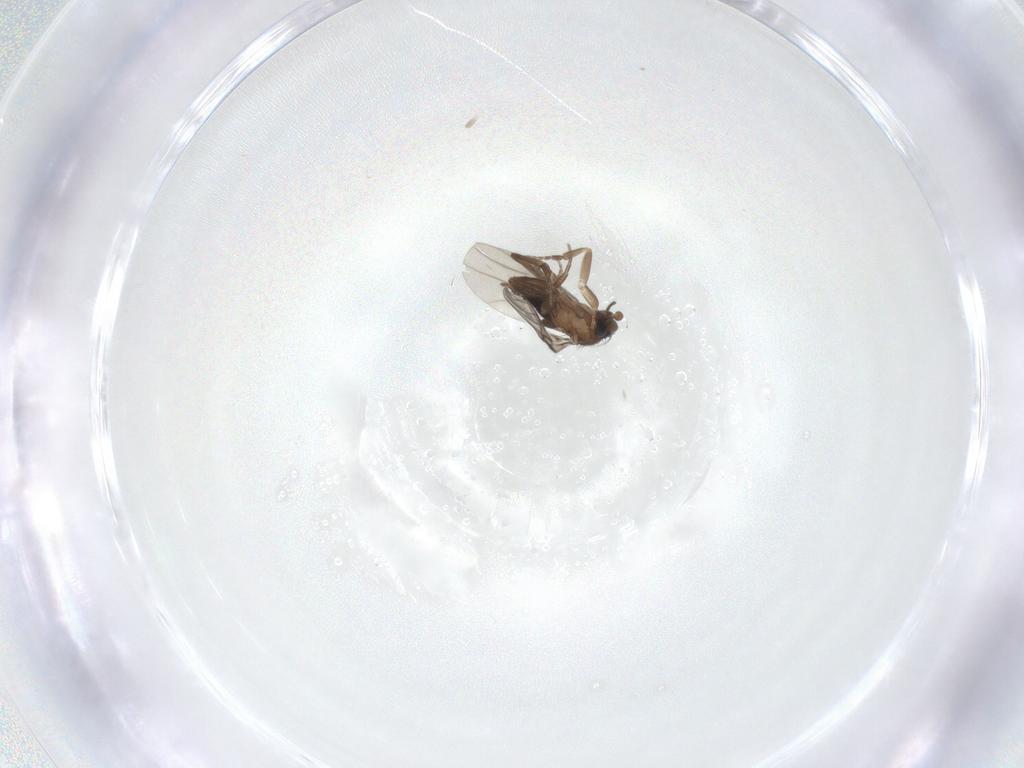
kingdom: Animalia
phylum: Arthropoda
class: Insecta
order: Diptera
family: Phoridae
